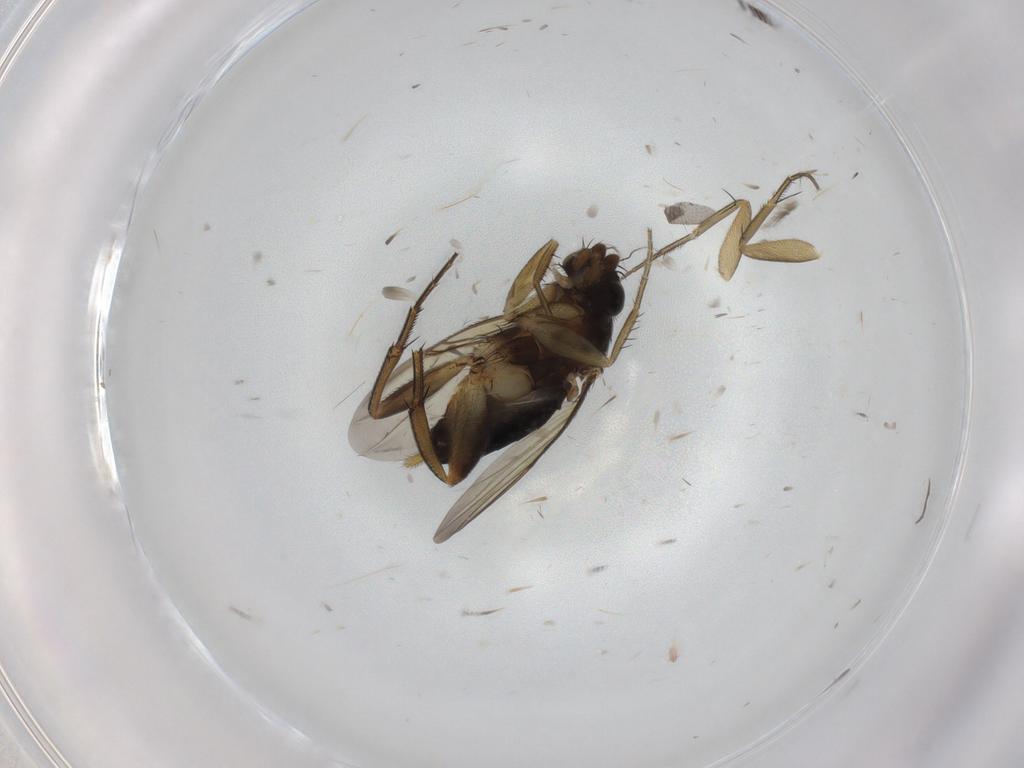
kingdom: Animalia
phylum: Arthropoda
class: Insecta
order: Diptera
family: Phoridae
